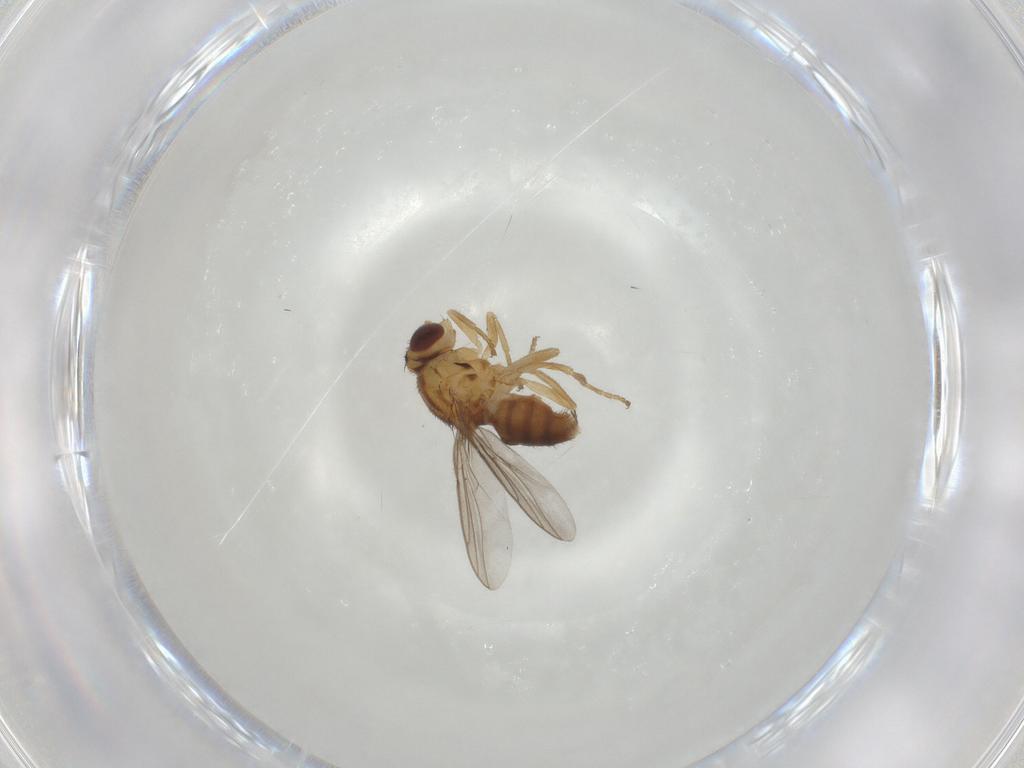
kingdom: Animalia
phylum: Arthropoda
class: Insecta
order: Diptera
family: Chloropidae
